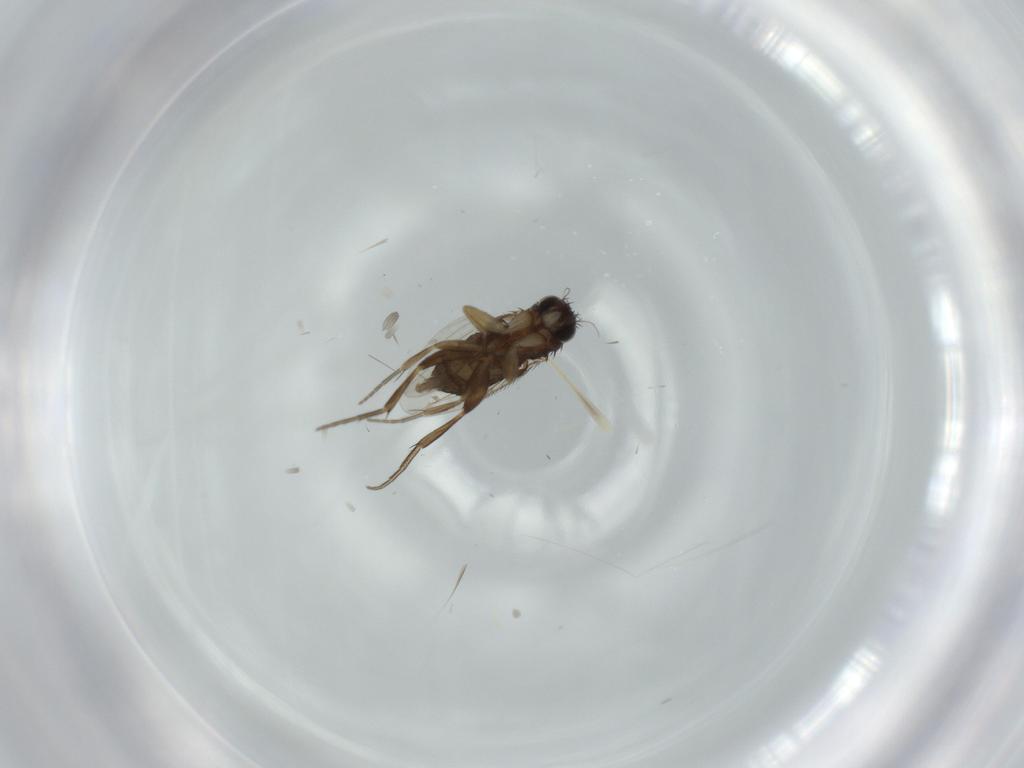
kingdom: Animalia
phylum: Arthropoda
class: Insecta
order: Diptera
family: Phoridae
